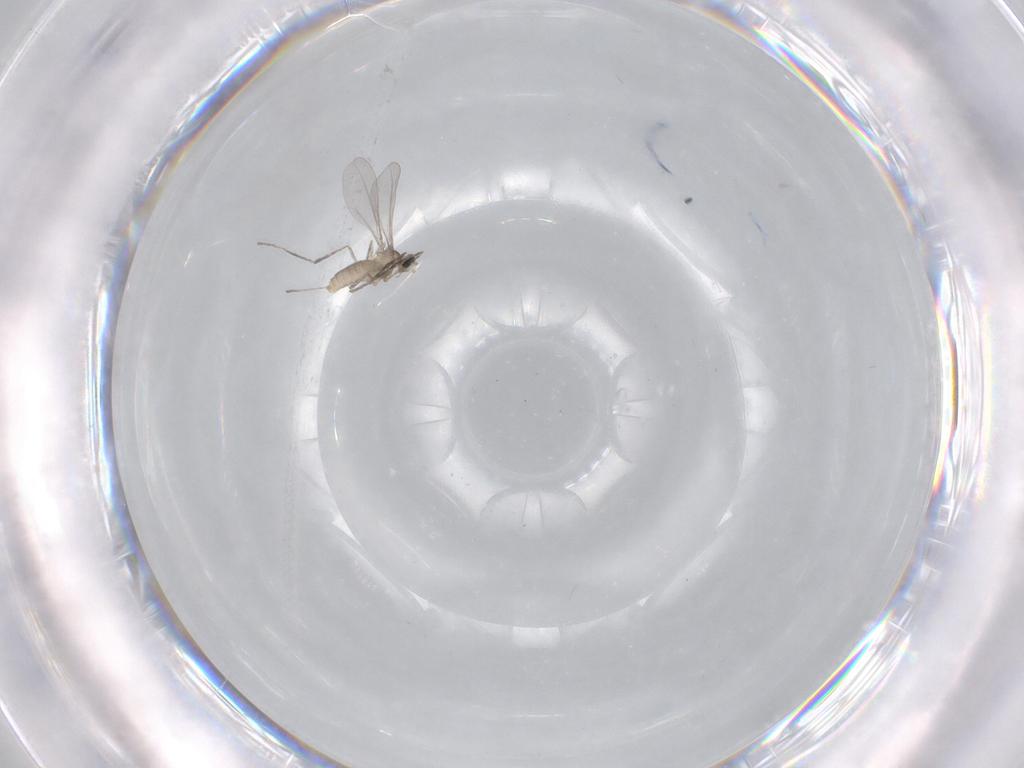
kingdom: Animalia
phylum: Arthropoda
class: Insecta
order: Diptera
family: Cecidomyiidae
